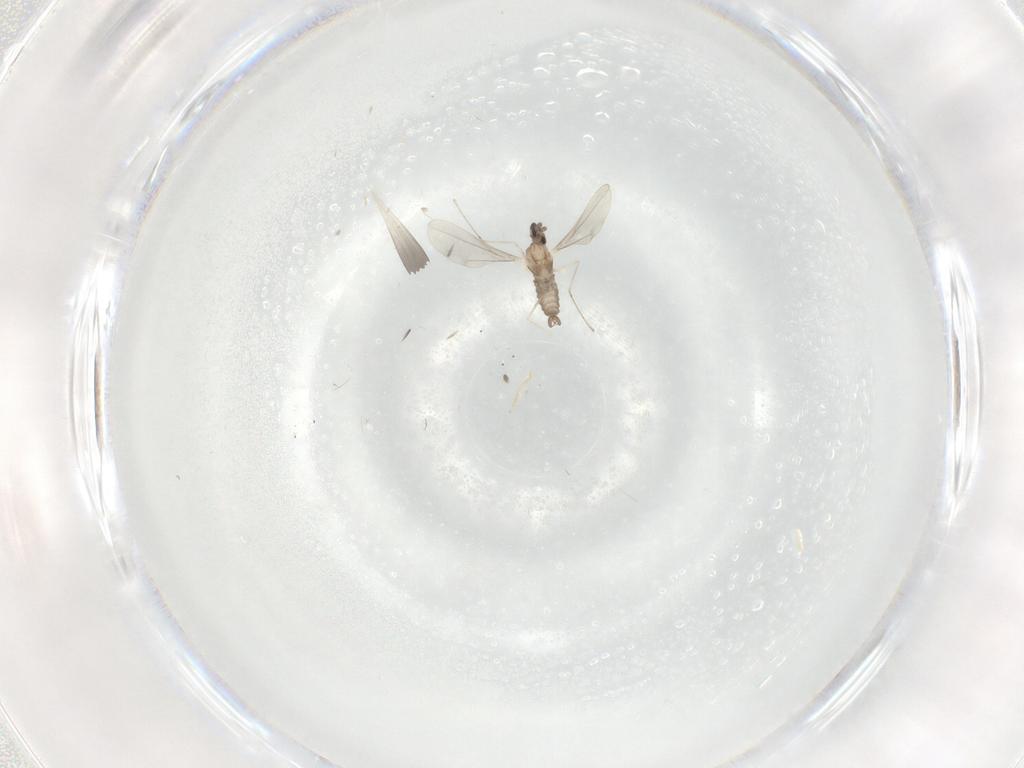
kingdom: Animalia
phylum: Arthropoda
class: Insecta
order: Diptera
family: Cecidomyiidae
